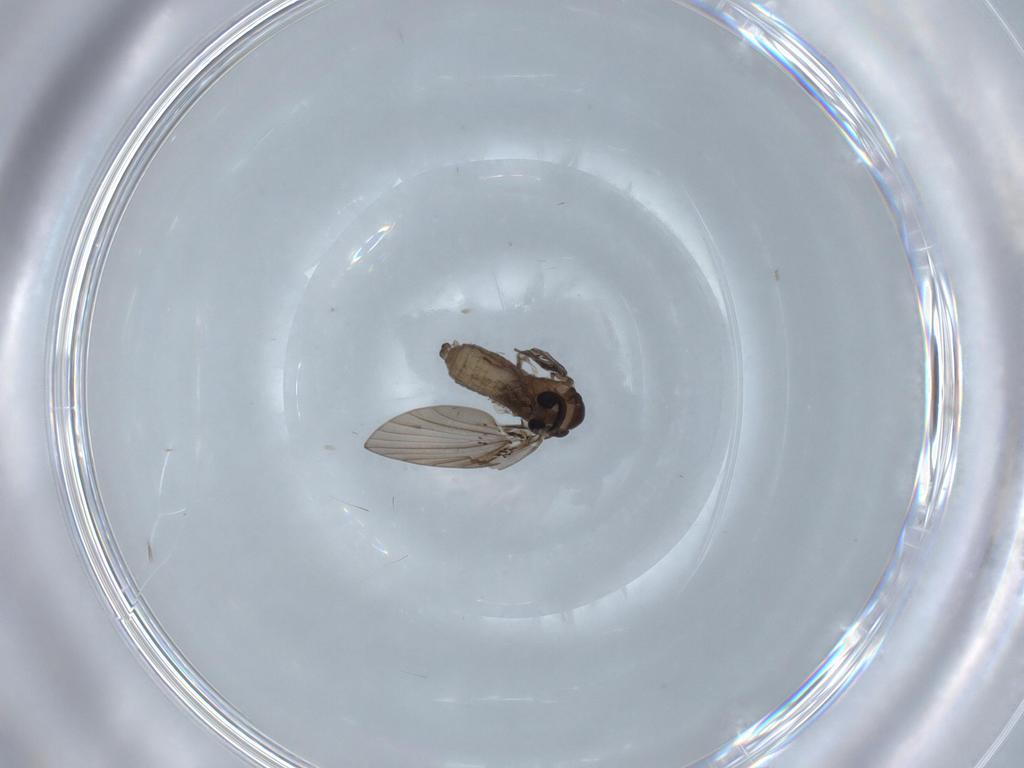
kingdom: Animalia
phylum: Arthropoda
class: Insecta
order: Diptera
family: Psychodidae
